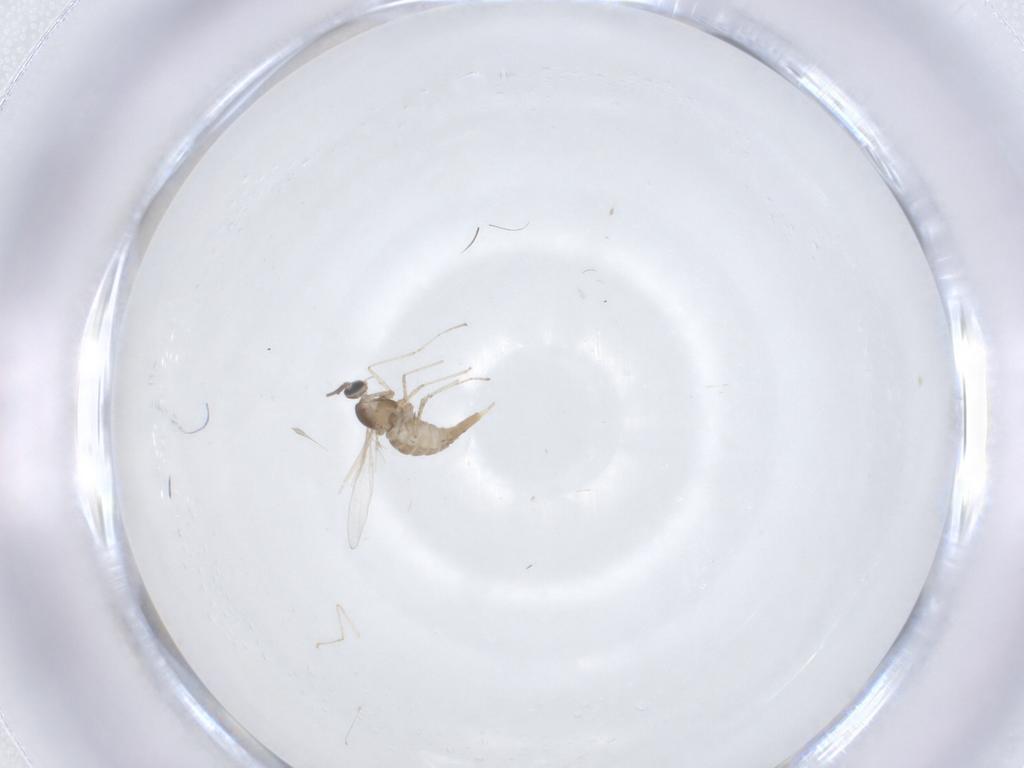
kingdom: Animalia
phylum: Arthropoda
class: Insecta
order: Diptera
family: Cecidomyiidae
